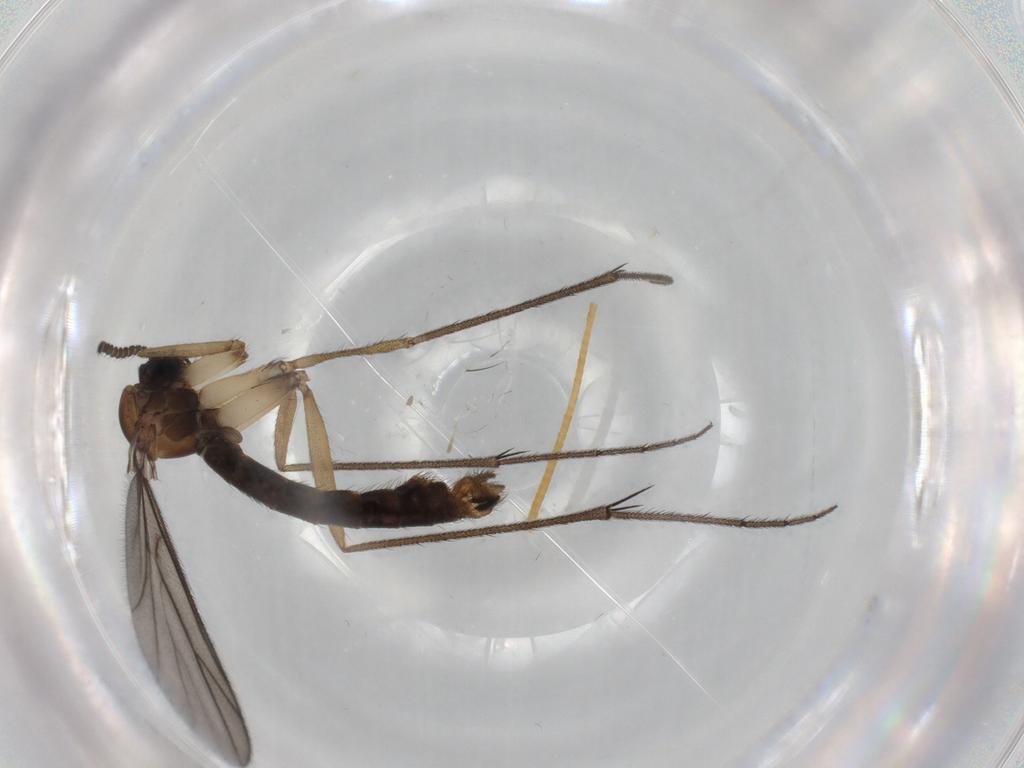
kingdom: Animalia
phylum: Arthropoda
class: Insecta
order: Diptera
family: Ditomyiidae
